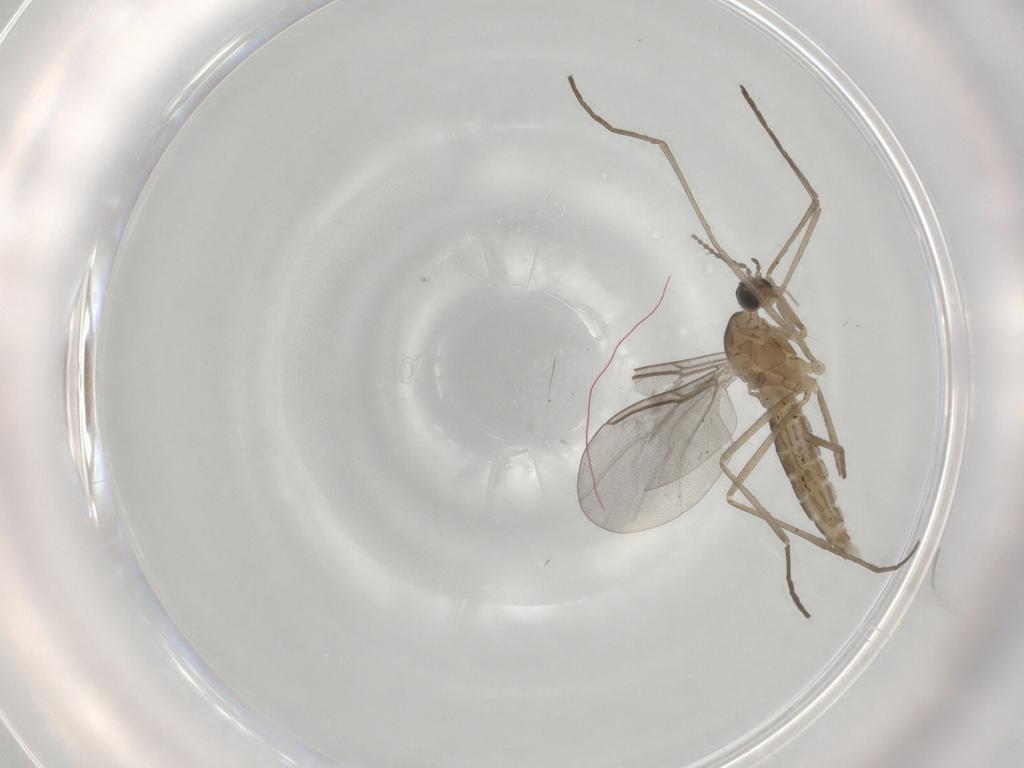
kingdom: Animalia
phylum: Arthropoda
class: Insecta
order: Diptera
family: Cecidomyiidae
